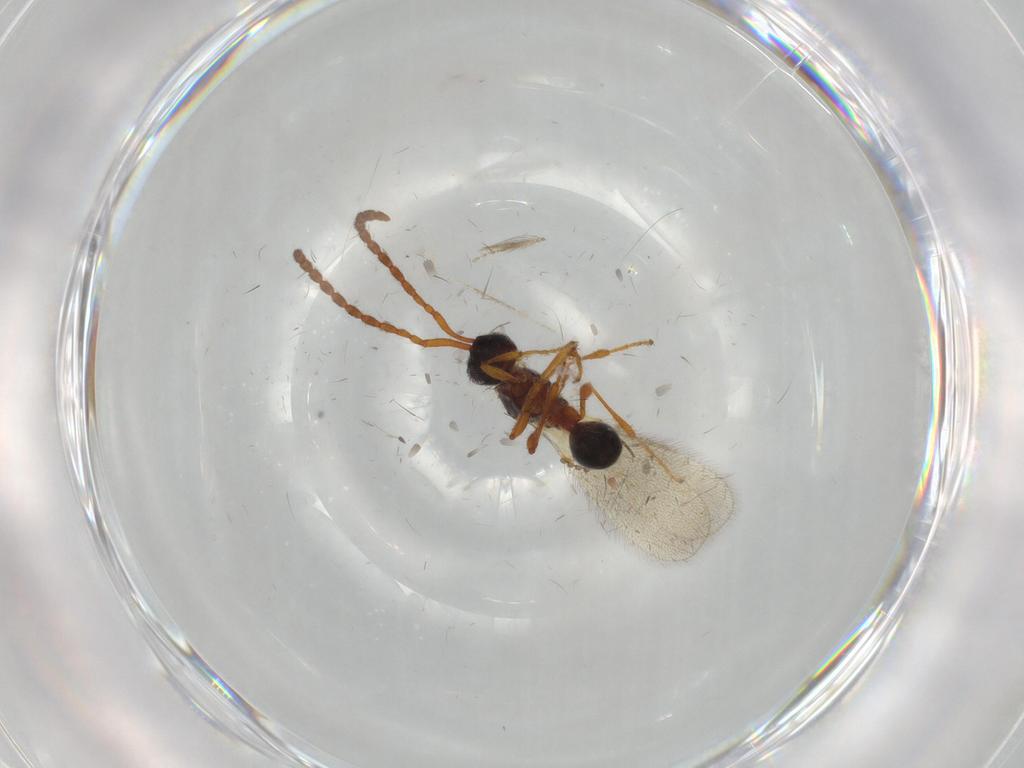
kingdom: Animalia
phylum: Arthropoda
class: Insecta
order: Hymenoptera
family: Diapriidae
